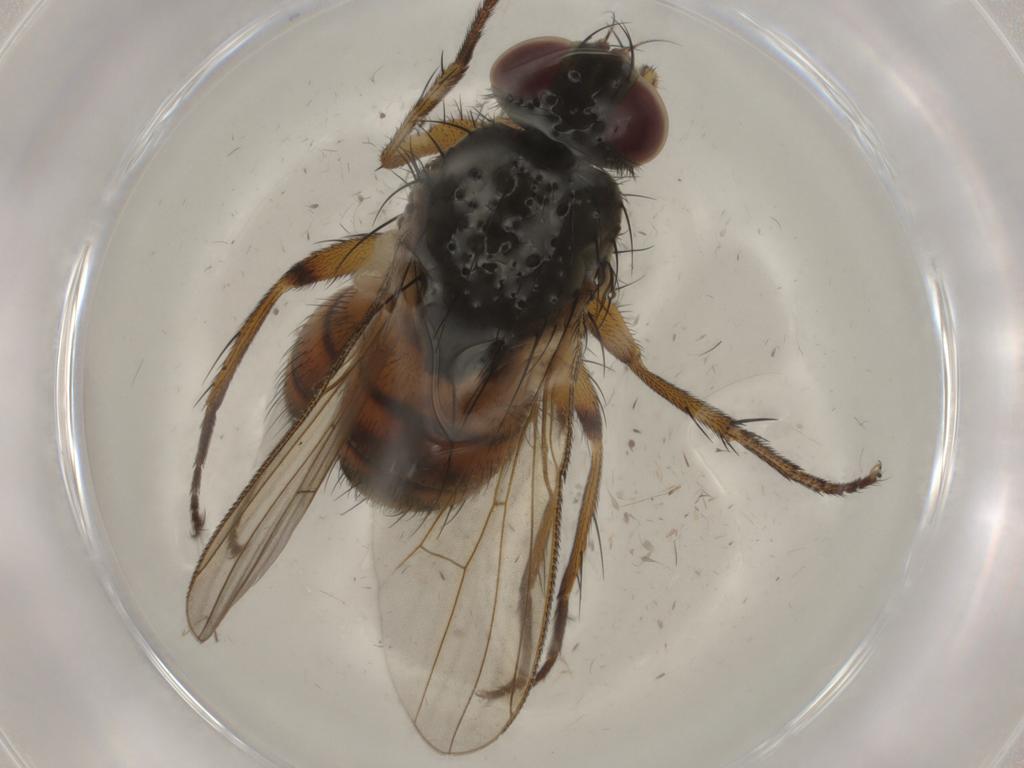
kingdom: Animalia
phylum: Arthropoda
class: Insecta
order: Diptera
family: Muscidae
